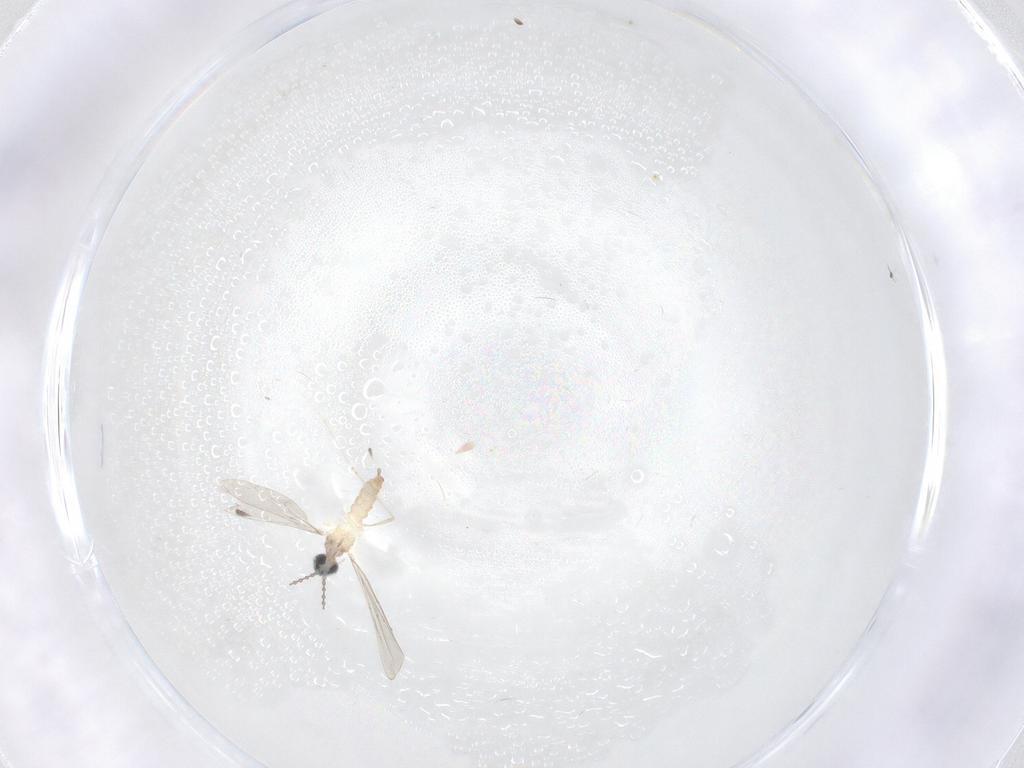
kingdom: Animalia
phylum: Arthropoda
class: Insecta
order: Diptera
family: Cecidomyiidae
